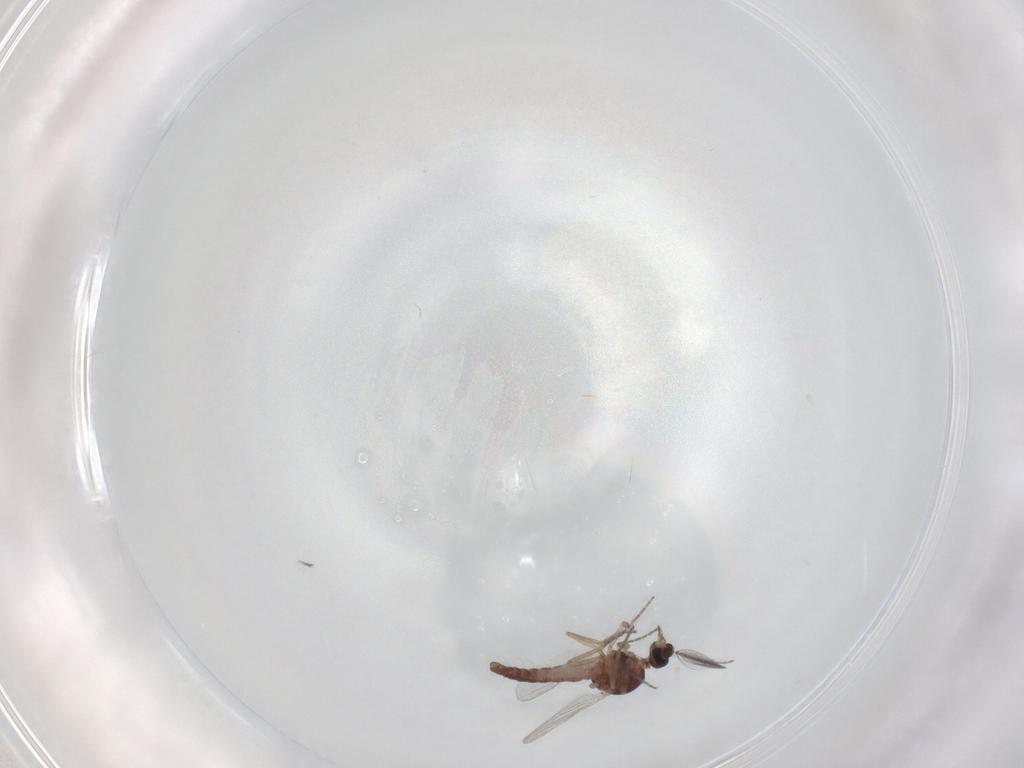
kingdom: Animalia
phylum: Arthropoda
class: Insecta
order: Diptera
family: Ceratopogonidae
